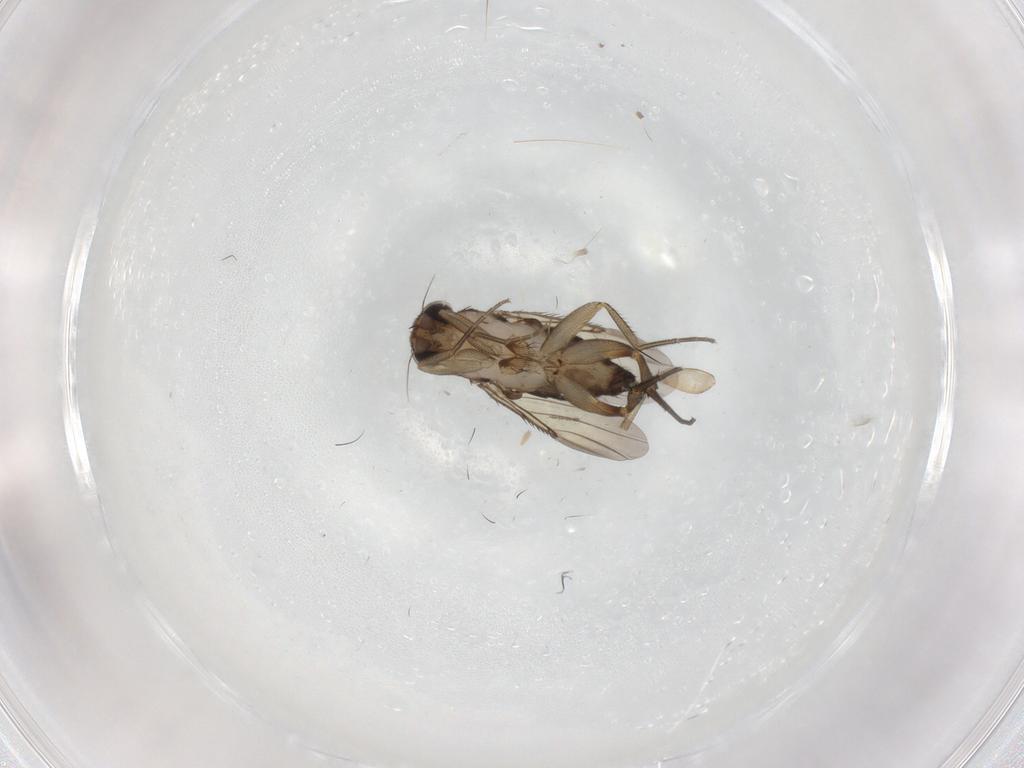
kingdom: Animalia
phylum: Arthropoda
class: Insecta
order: Diptera
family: Phoridae
